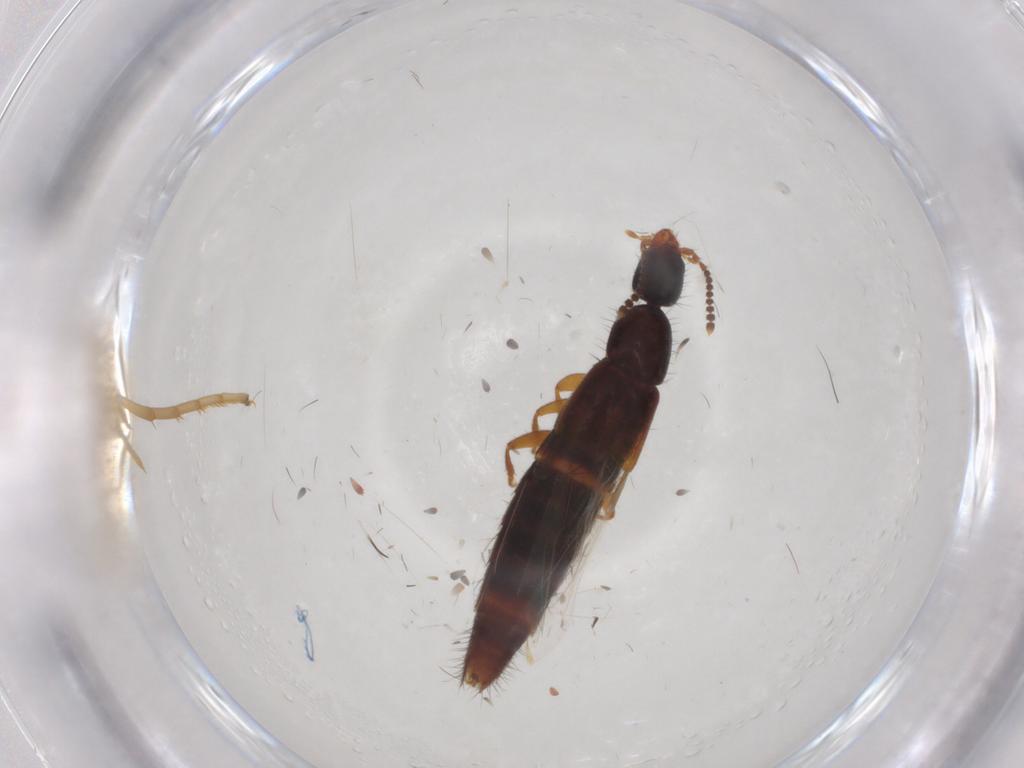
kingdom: Animalia
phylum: Arthropoda
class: Insecta
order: Coleoptera
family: Staphylinidae
